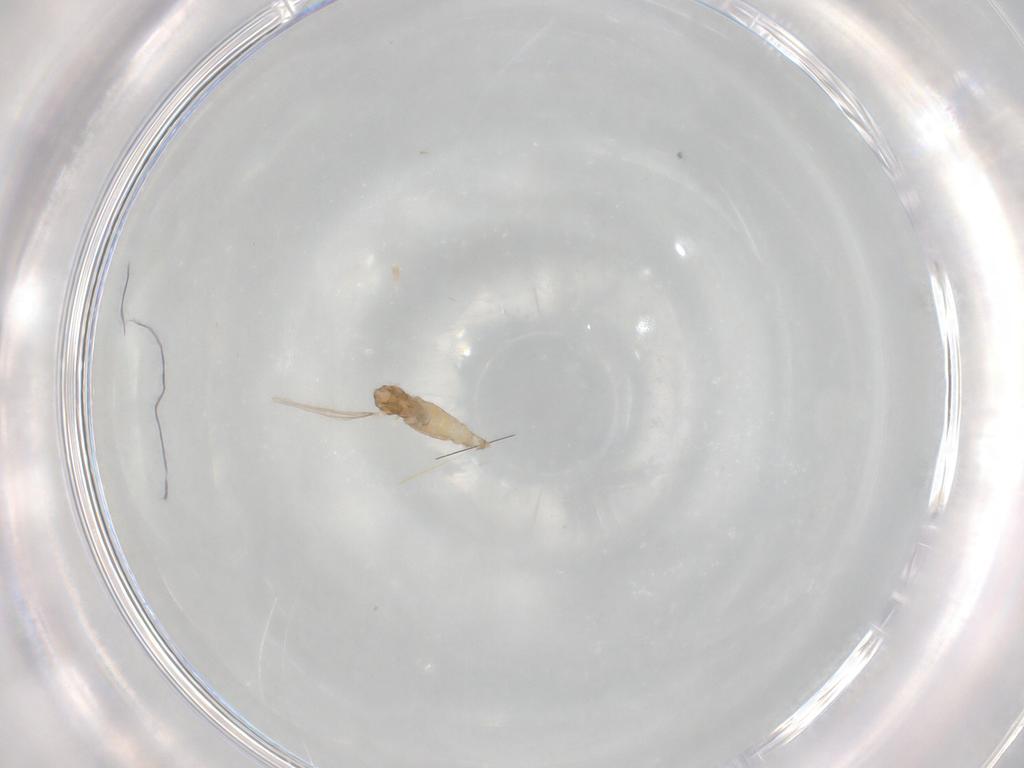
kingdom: Animalia
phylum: Arthropoda
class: Insecta
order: Diptera
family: Cecidomyiidae
